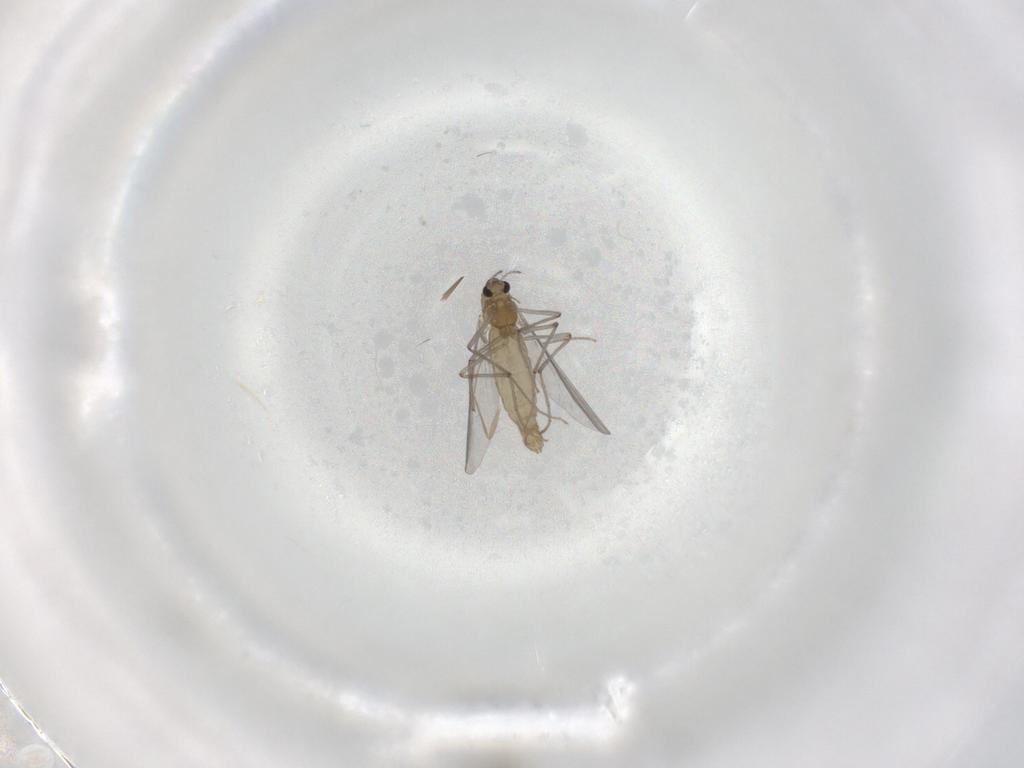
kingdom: Animalia
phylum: Arthropoda
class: Insecta
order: Diptera
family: Chironomidae
